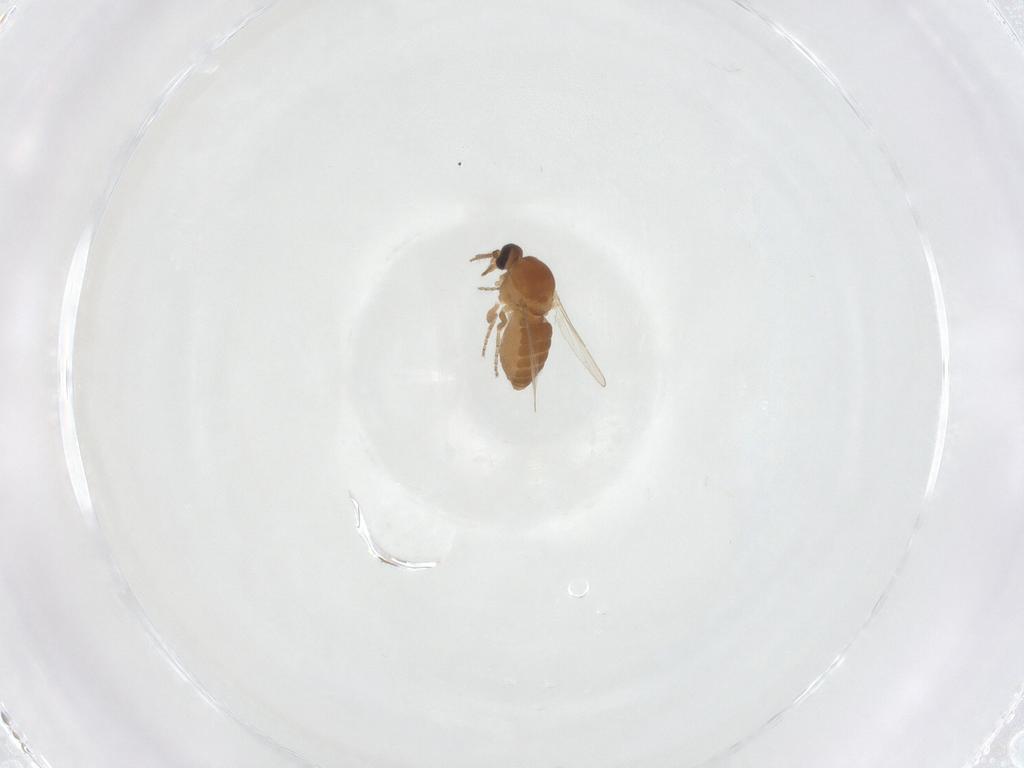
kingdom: Animalia
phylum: Arthropoda
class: Insecta
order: Diptera
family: Ceratopogonidae
